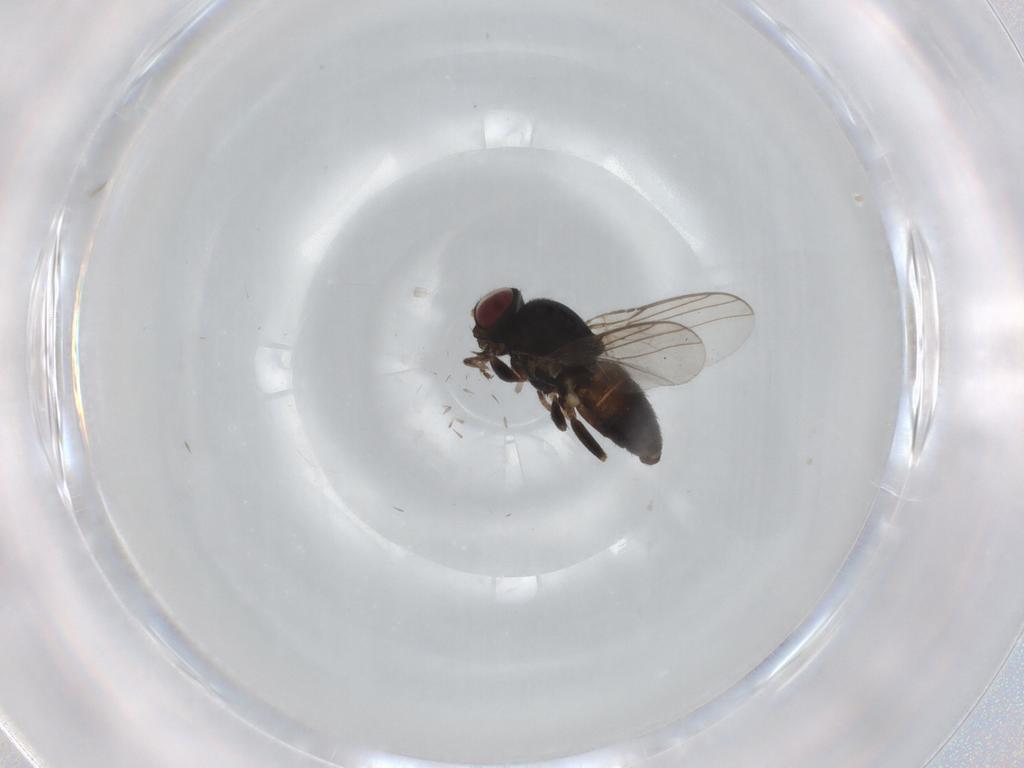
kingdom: Animalia
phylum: Arthropoda
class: Insecta
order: Diptera
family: Chloropidae
